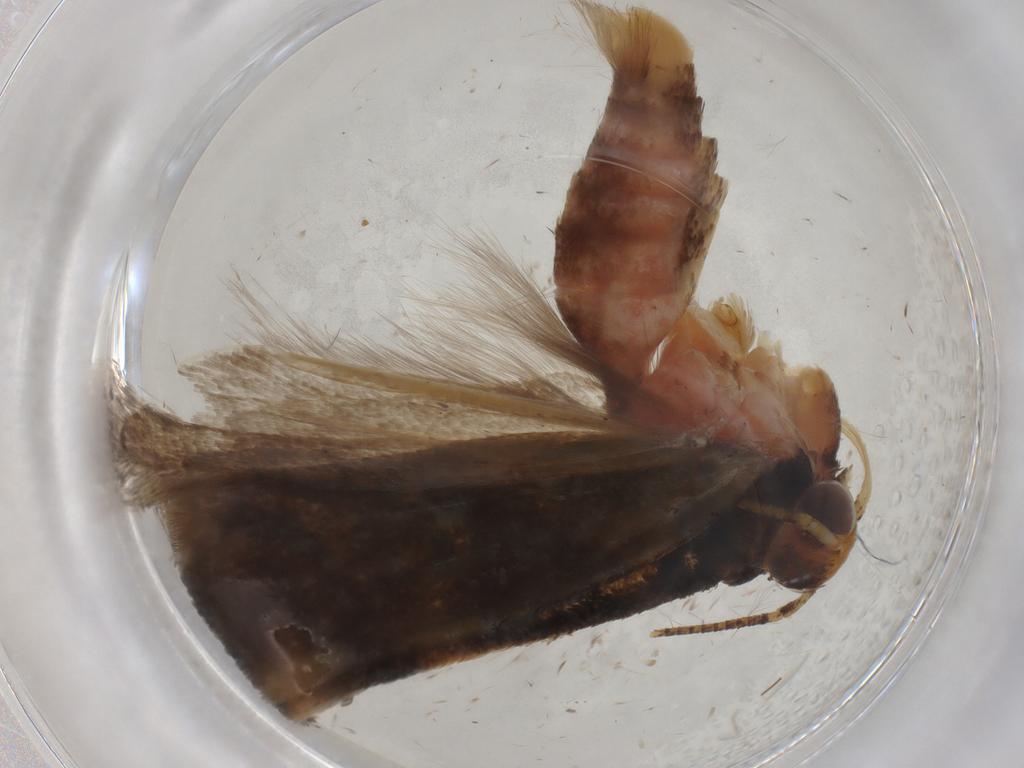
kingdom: Animalia
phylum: Arthropoda
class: Insecta
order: Lepidoptera
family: Gelechiidae
